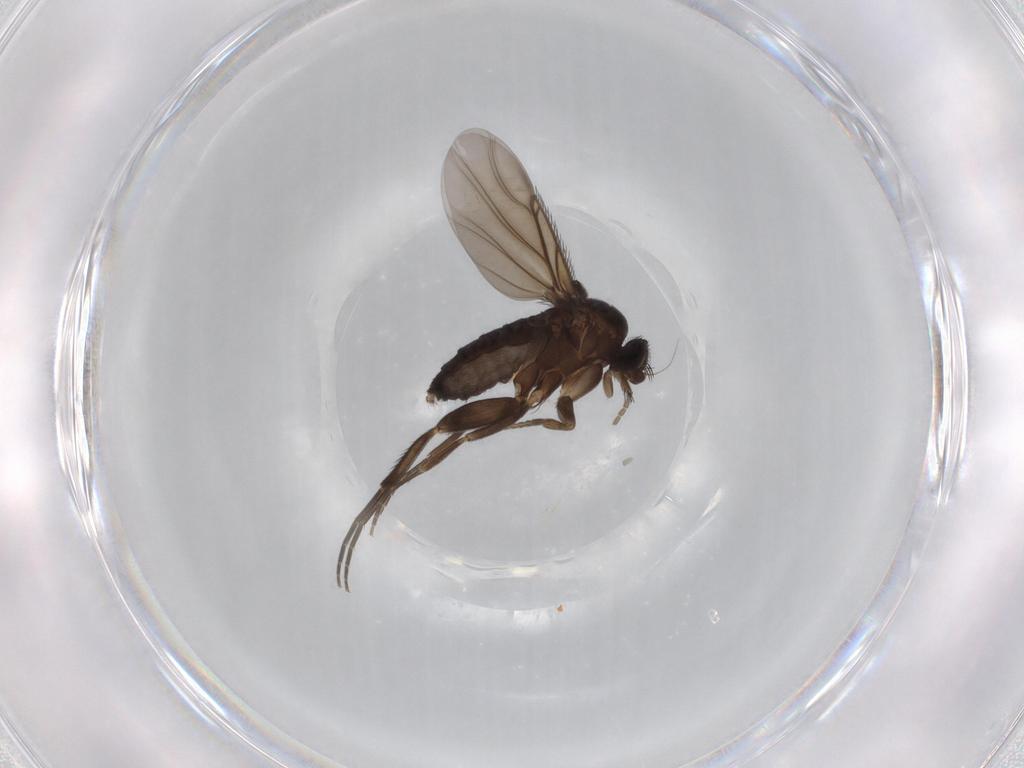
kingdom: Animalia
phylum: Arthropoda
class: Insecta
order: Diptera
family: Phoridae
